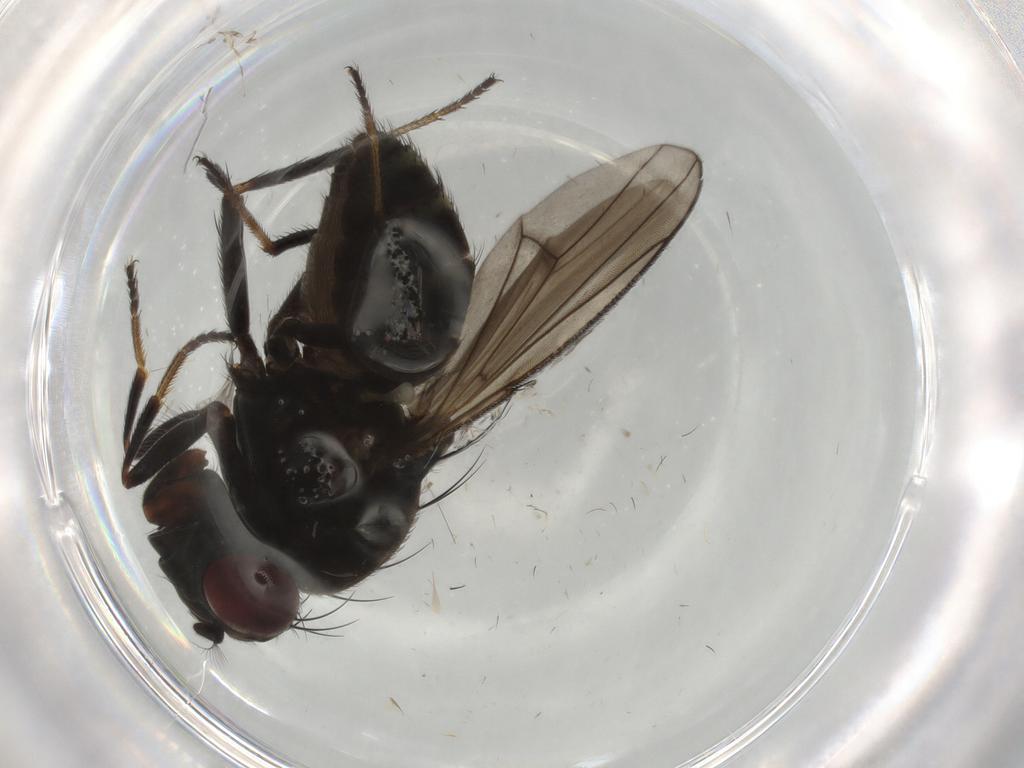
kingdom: Animalia
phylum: Arthropoda
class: Insecta
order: Diptera
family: Ephydridae
